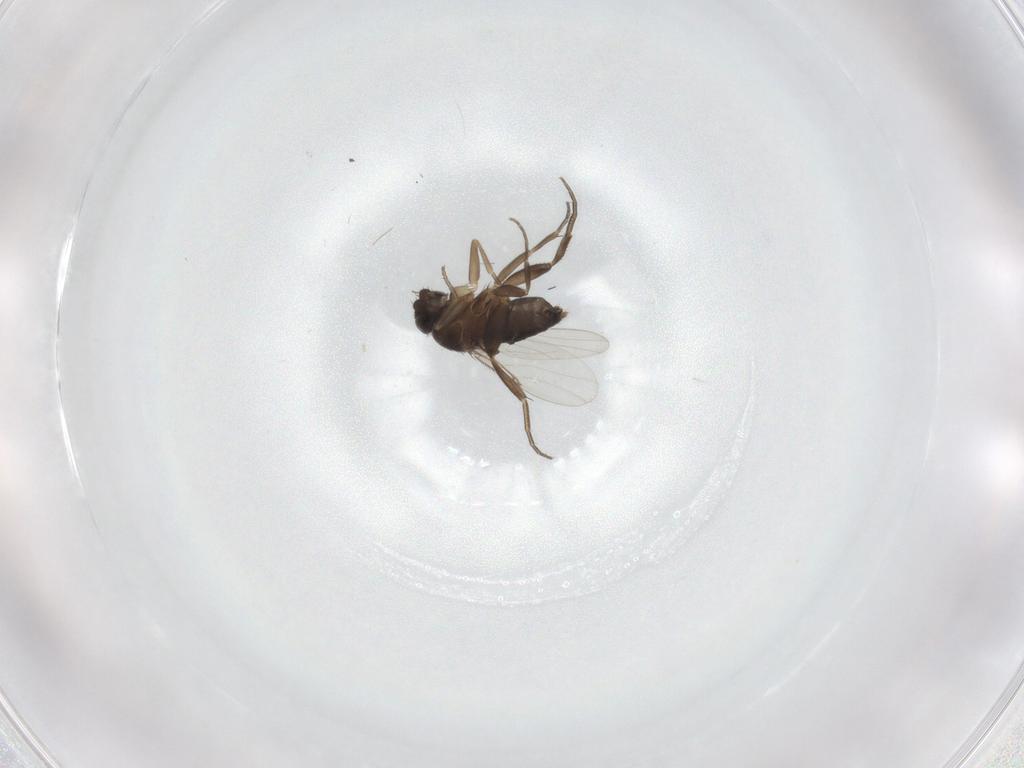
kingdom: Animalia
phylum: Arthropoda
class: Insecta
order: Diptera
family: Phoridae
